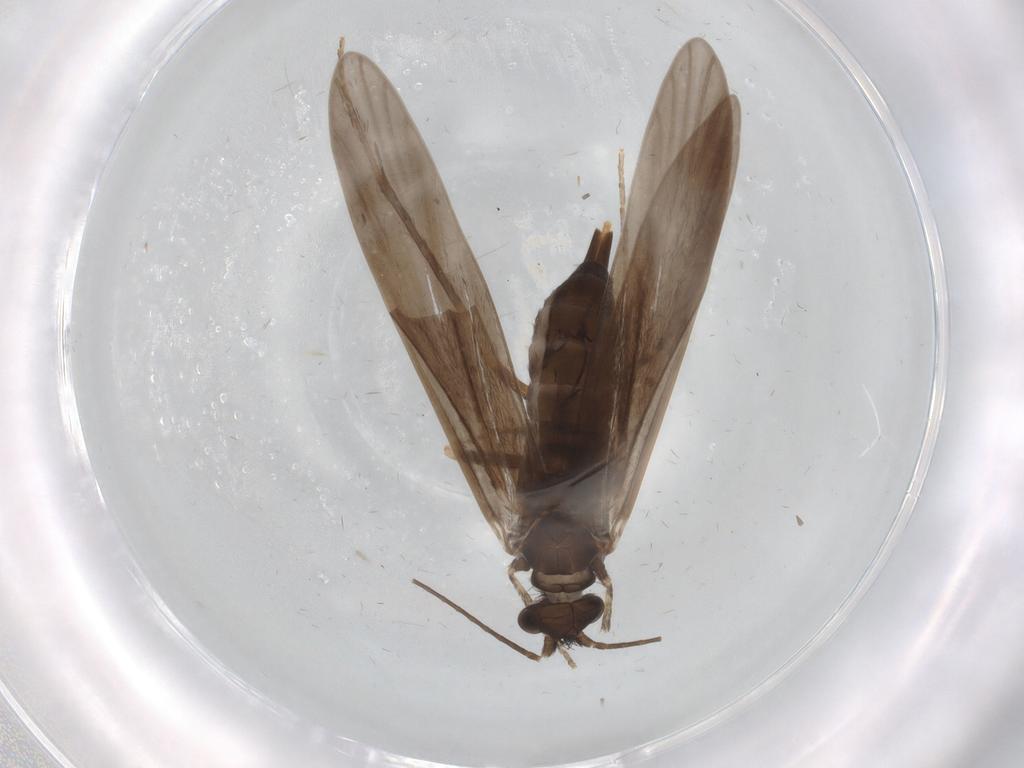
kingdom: Animalia
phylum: Arthropoda
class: Insecta
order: Trichoptera
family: Xiphocentronidae
